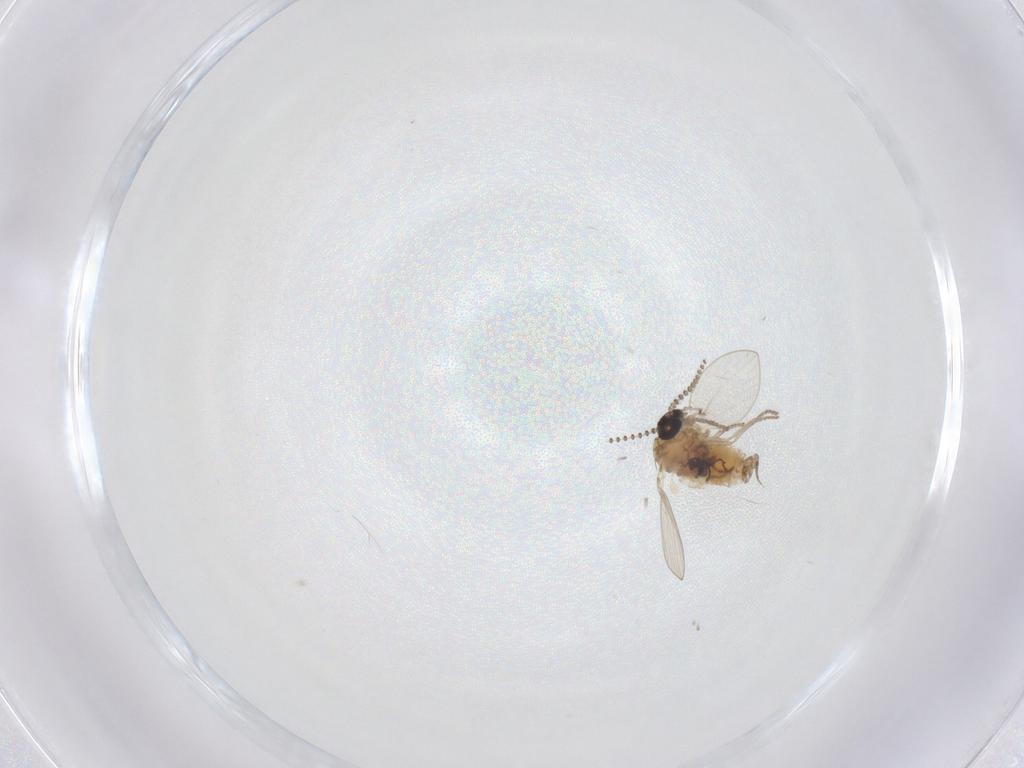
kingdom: Animalia
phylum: Arthropoda
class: Insecta
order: Diptera
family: Psychodidae
